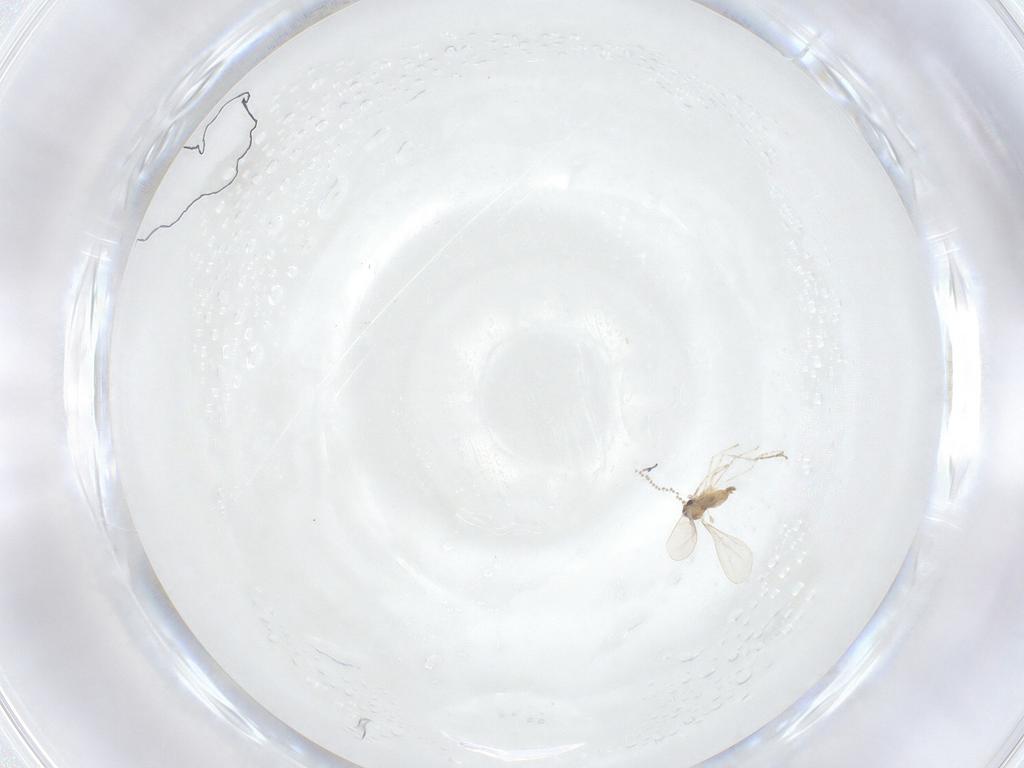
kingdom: Animalia
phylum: Arthropoda
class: Insecta
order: Diptera
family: Cecidomyiidae
